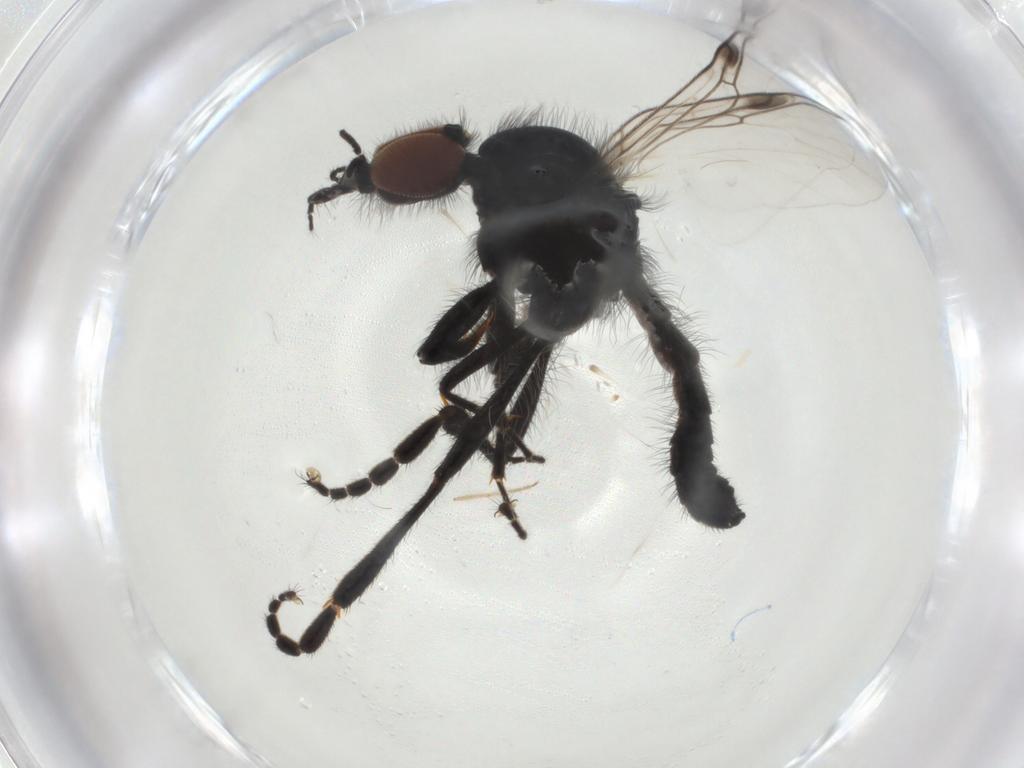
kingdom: Animalia
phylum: Arthropoda
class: Insecta
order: Diptera
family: Bibionidae
